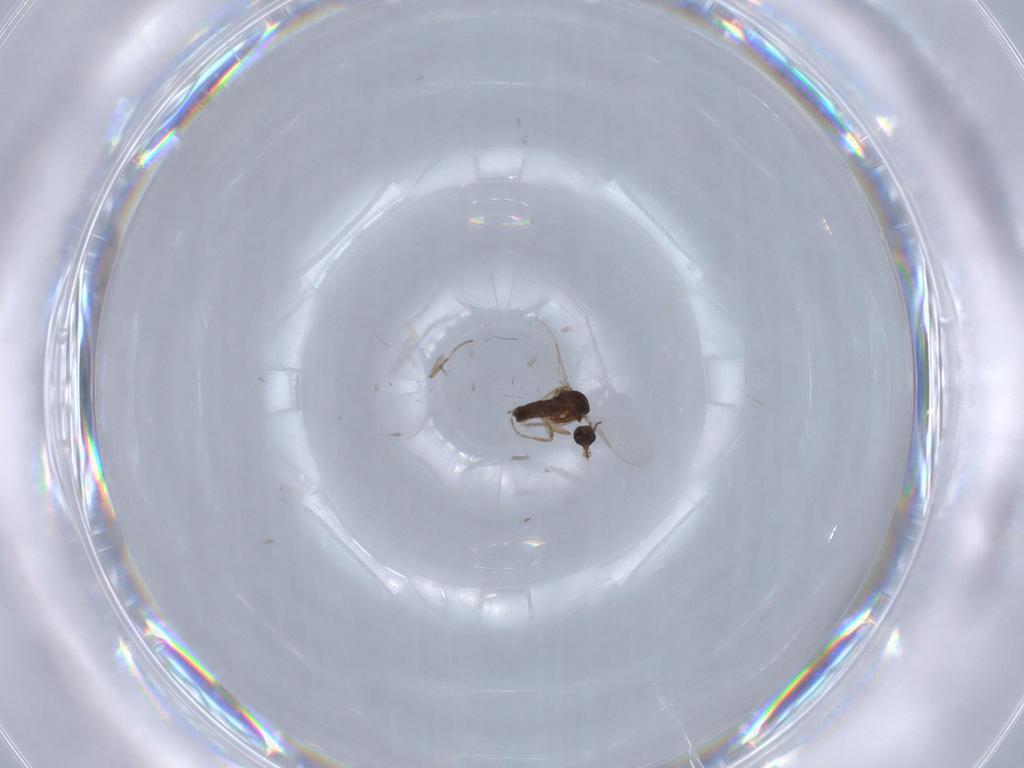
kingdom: Animalia
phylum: Arthropoda
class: Insecta
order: Diptera
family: Ceratopogonidae
